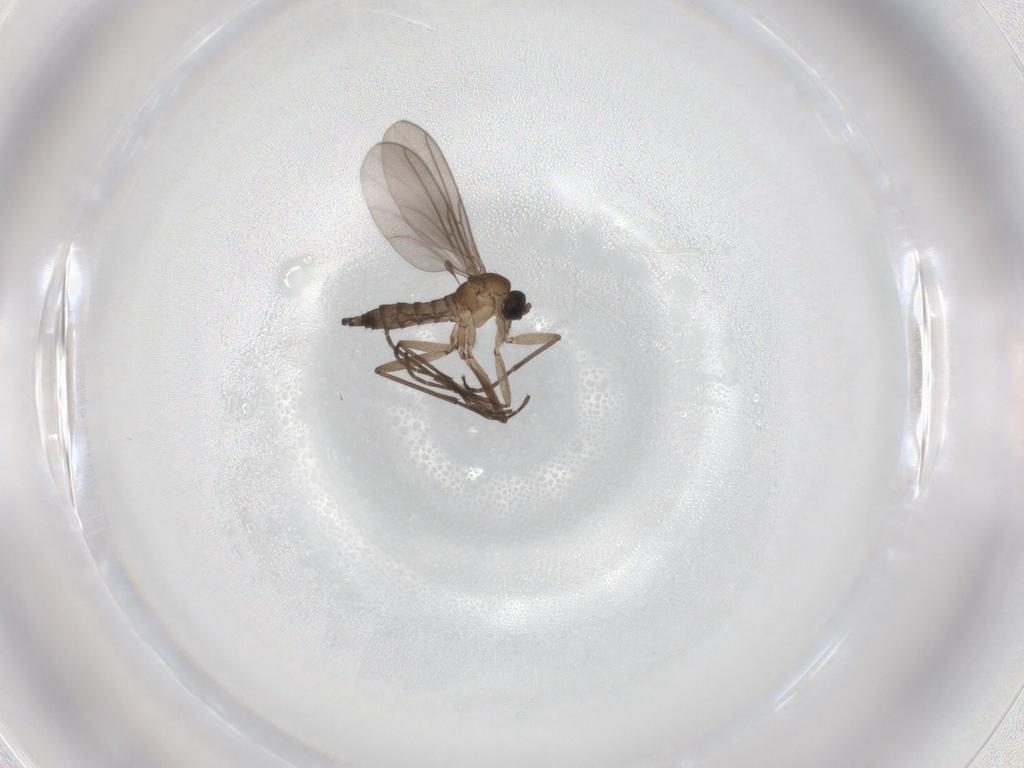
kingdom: Animalia
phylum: Arthropoda
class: Insecta
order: Diptera
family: Sciaridae
